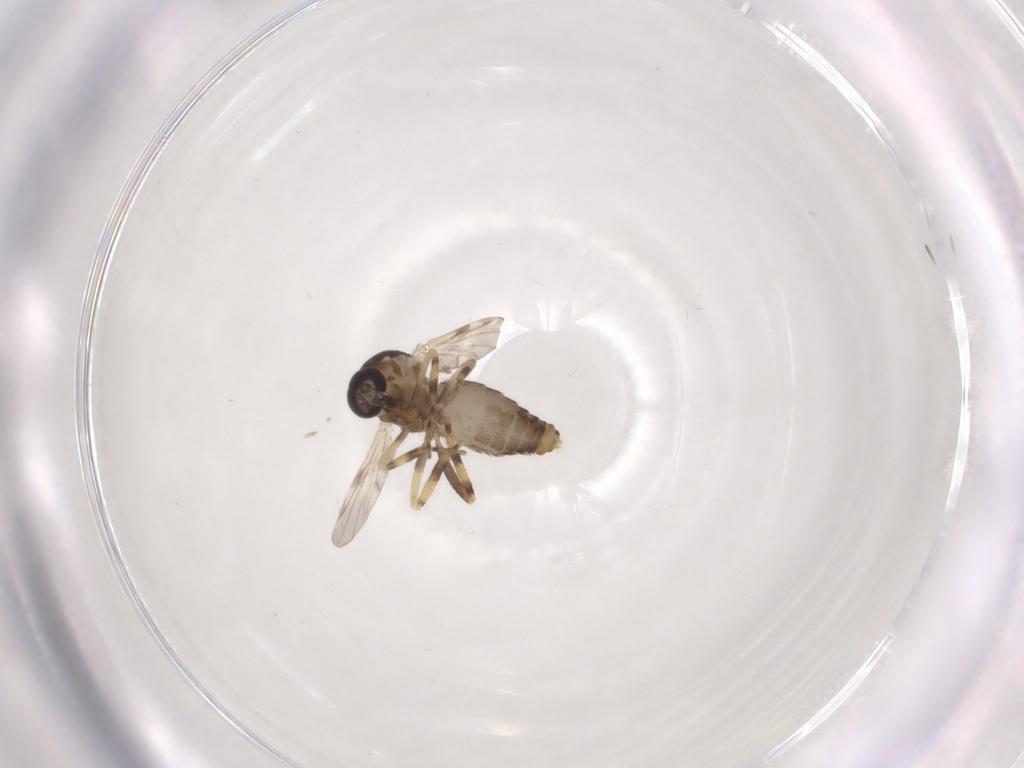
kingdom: Animalia
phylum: Arthropoda
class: Insecta
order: Diptera
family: Ceratopogonidae
